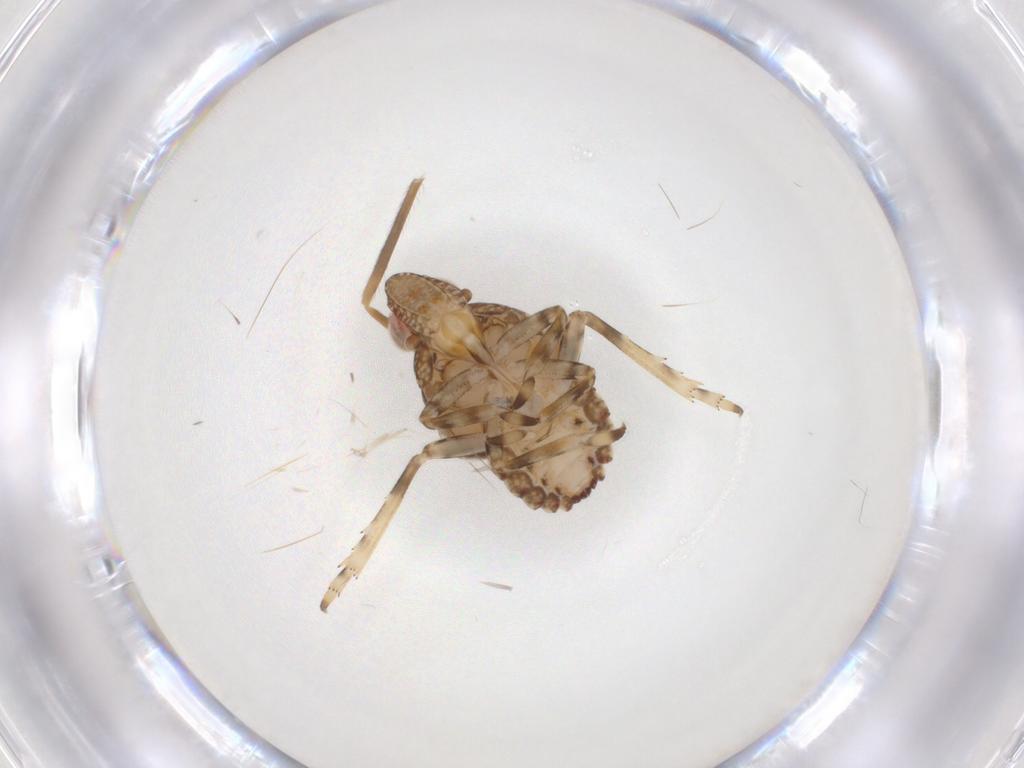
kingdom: Animalia
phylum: Arthropoda
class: Insecta
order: Hemiptera
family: Tropiduchidae
